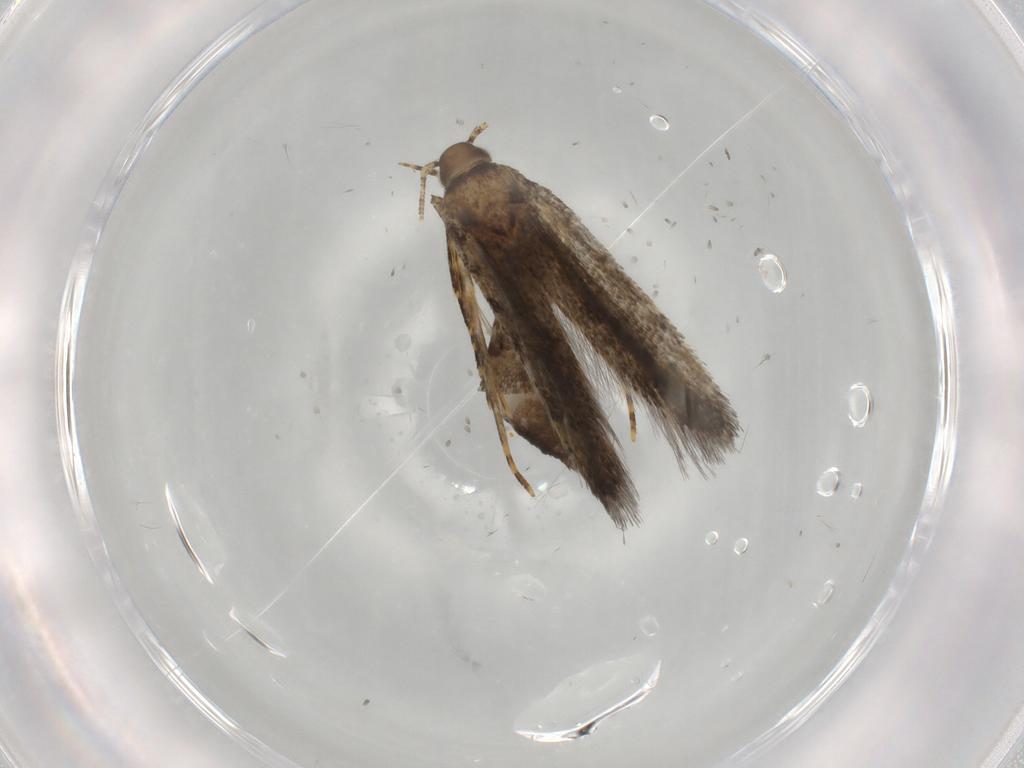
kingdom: Animalia
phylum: Arthropoda
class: Insecta
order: Lepidoptera
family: Oecophoridae
